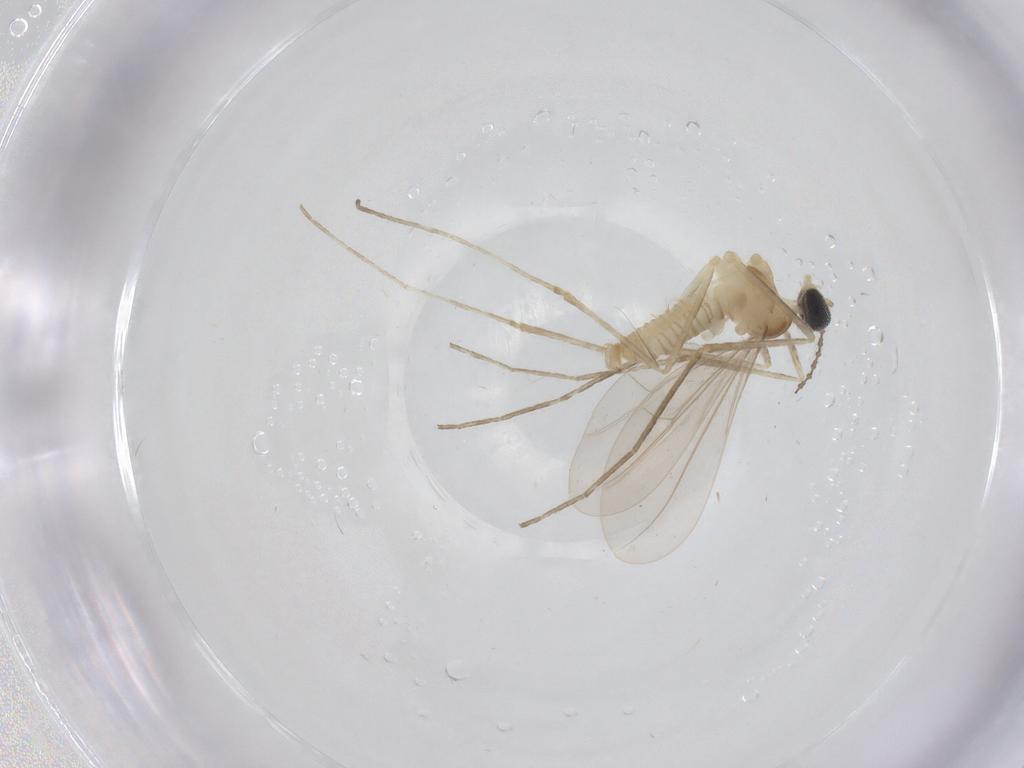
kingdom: Animalia
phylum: Arthropoda
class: Insecta
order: Diptera
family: Cecidomyiidae
